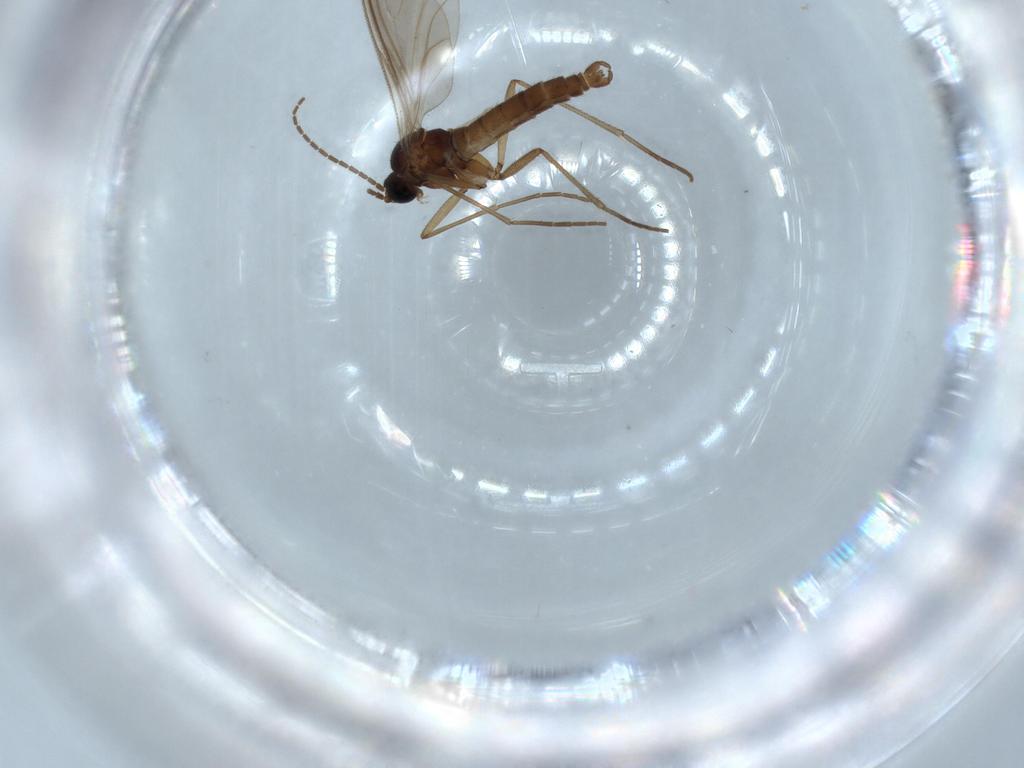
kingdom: Animalia
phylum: Arthropoda
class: Insecta
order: Diptera
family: Sciaridae
